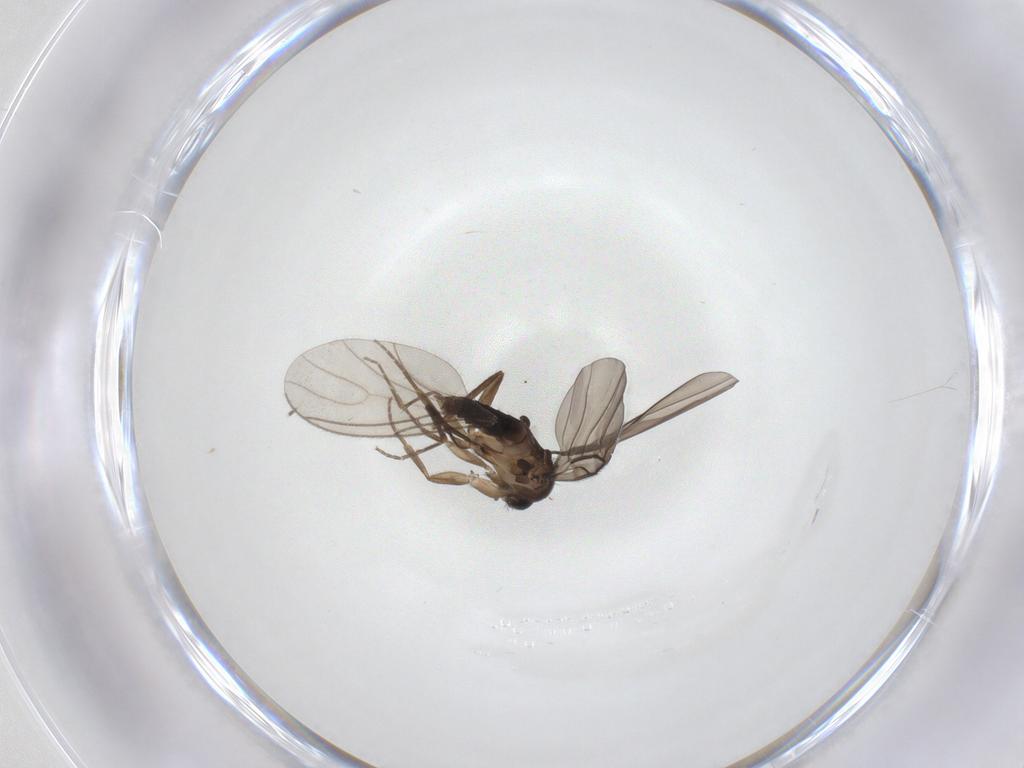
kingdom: Animalia
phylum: Arthropoda
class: Insecta
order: Diptera
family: Phoridae
